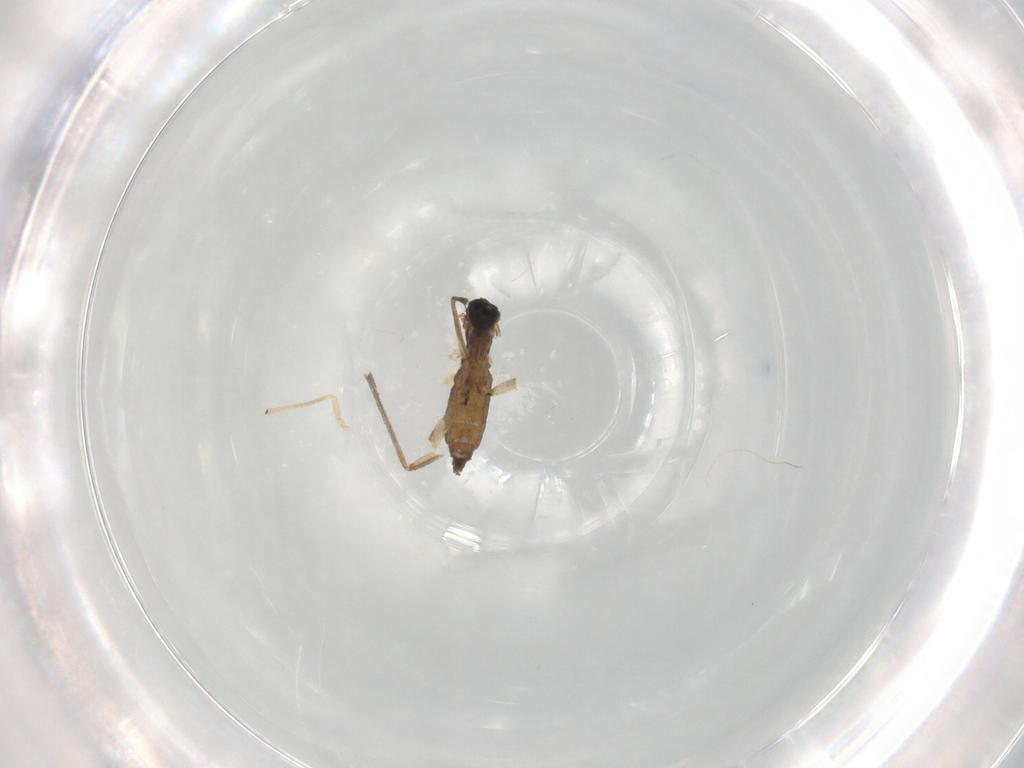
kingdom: Animalia
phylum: Arthropoda
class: Insecta
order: Diptera
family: Sciaridae
